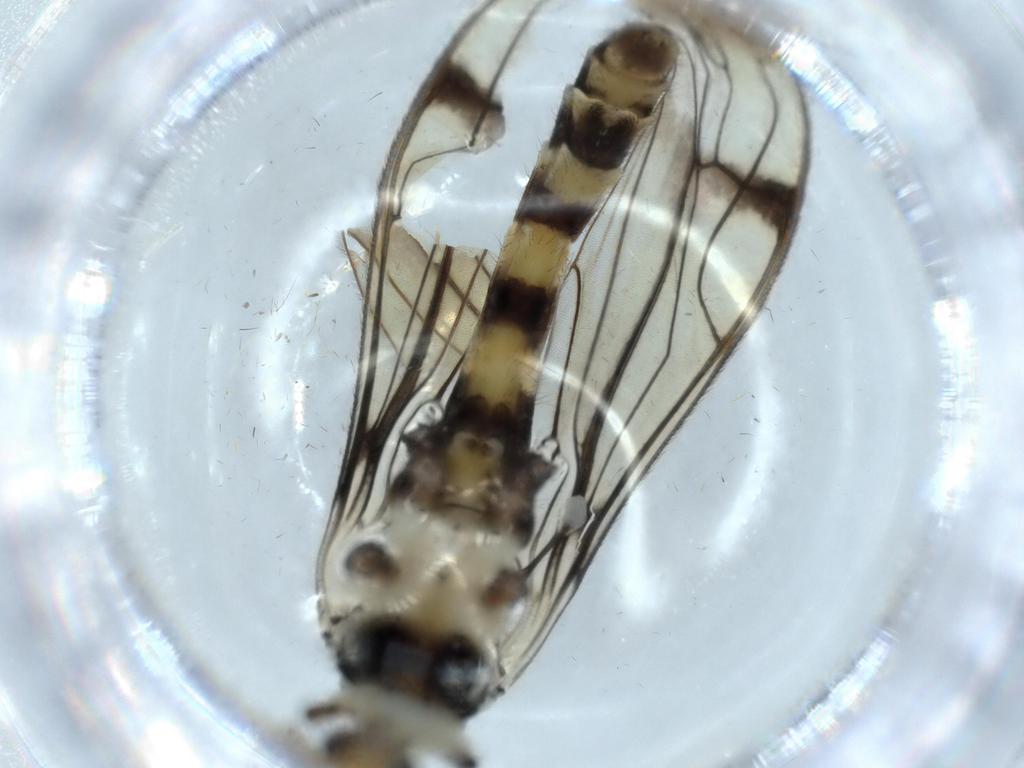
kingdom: Animalia
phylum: Arthropoda
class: Insecta
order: Diptera
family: Drosophilidae
